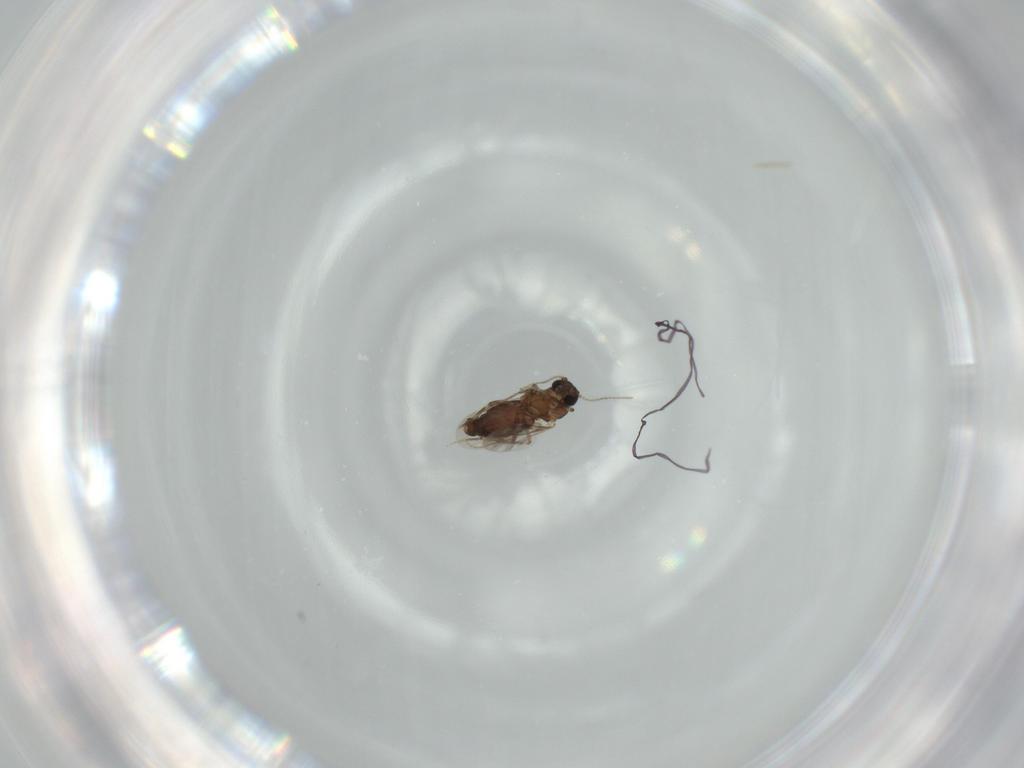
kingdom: Animalia
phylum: Arthropoda
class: Insecta
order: Diptera
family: Ceratopogonidae
